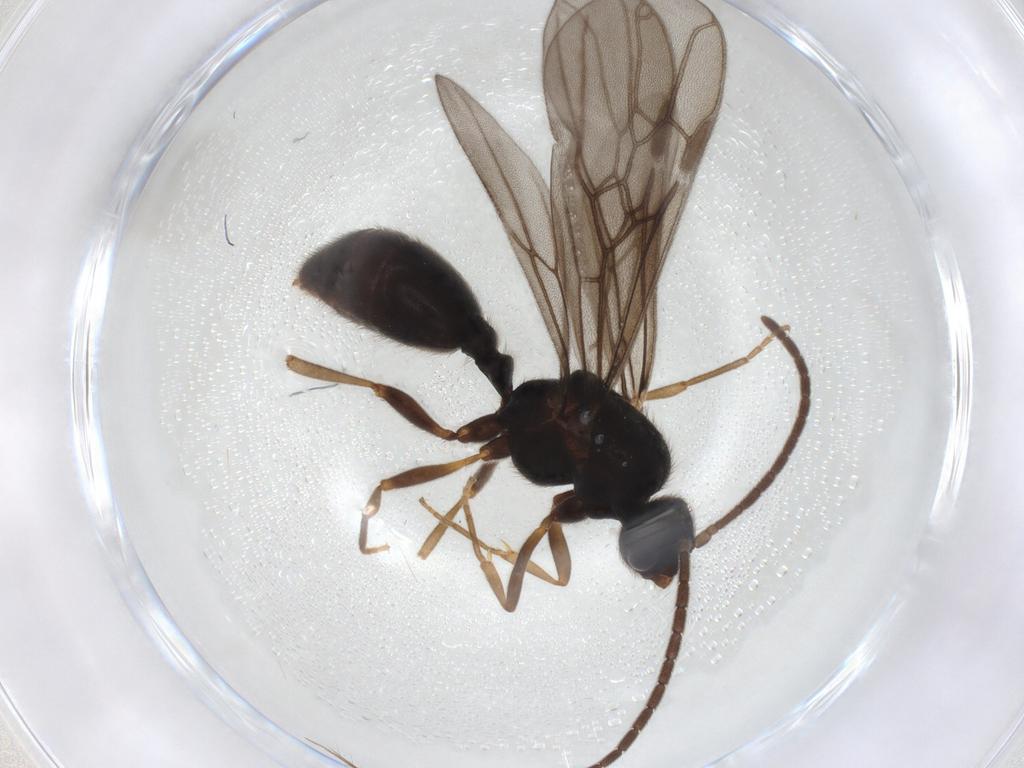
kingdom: Animalia
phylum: Arthropoda
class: Insecta
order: Hymenoptera
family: Formicidae
